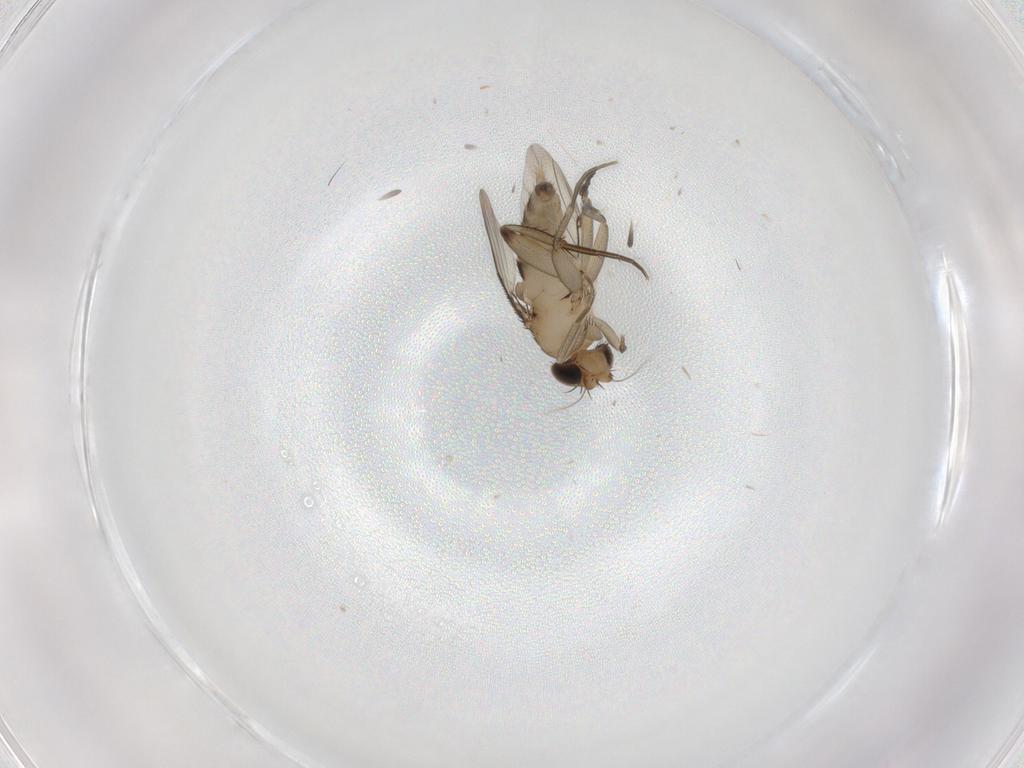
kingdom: Animalia
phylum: Arthropoda
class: Insecta
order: Diptera
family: Phoridae
